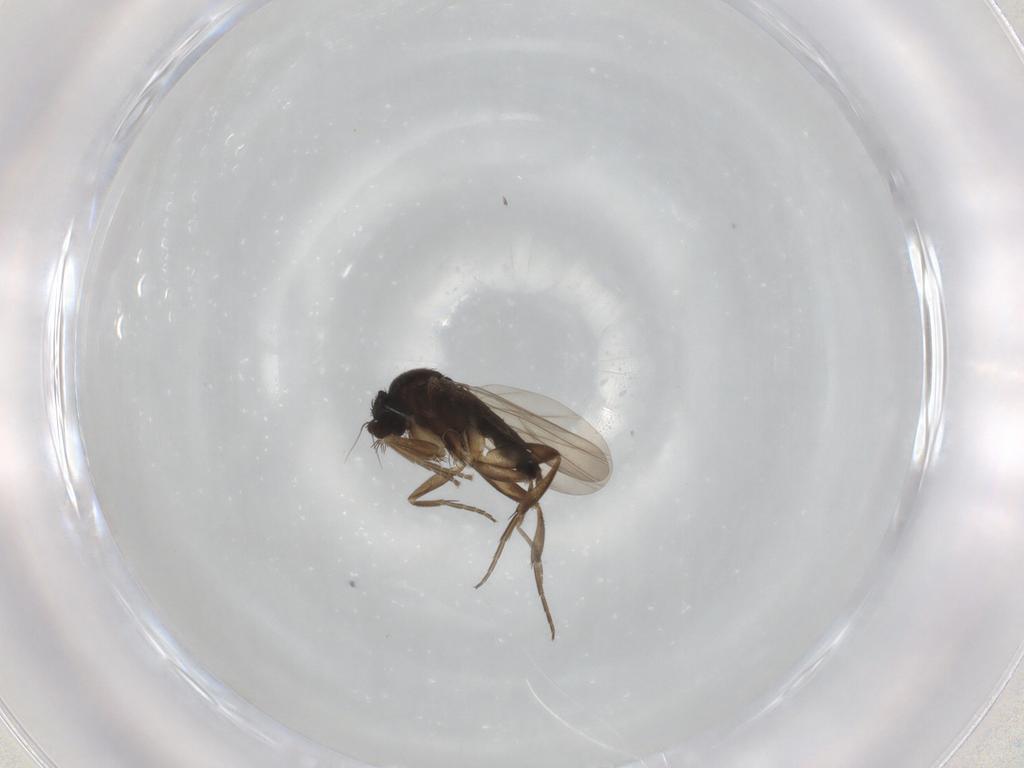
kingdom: Animalia
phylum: Arthropoda
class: Insecta
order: Diptera
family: Phoridae
